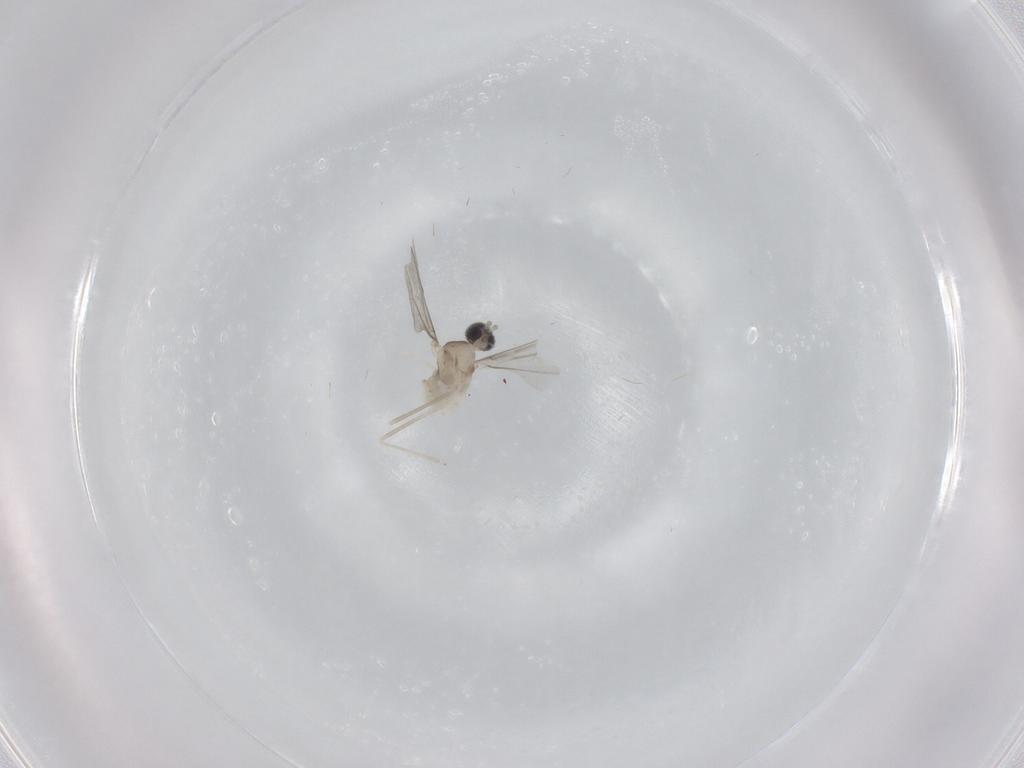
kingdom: Animalia
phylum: Arthropoda
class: Insecta
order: Diptera
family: Cecidomyiidae
